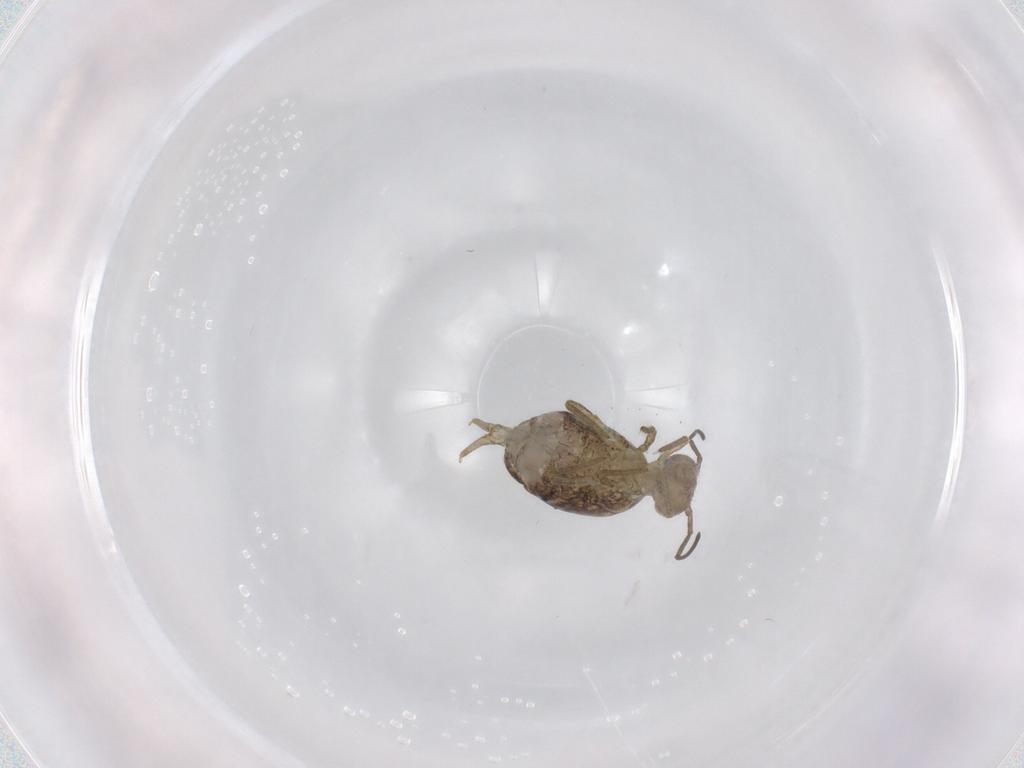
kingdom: Animalia
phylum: Arthropoda
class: Collembola
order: Symphypleona
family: Sminthuridae
